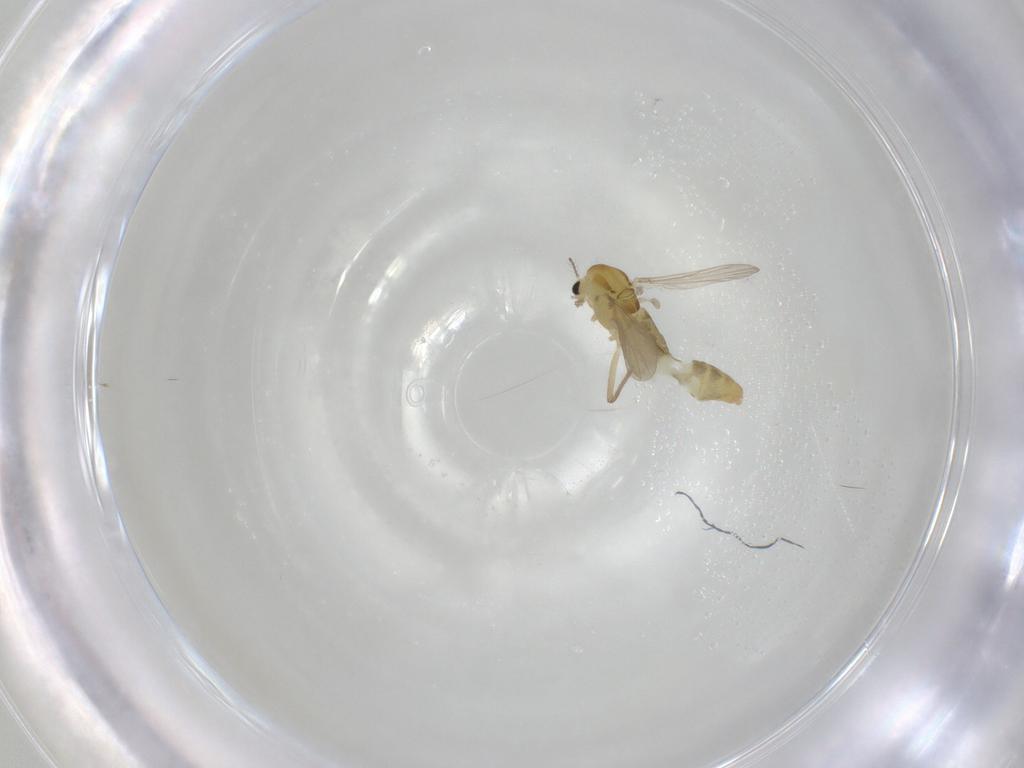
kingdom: Animalia
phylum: Arthropoda
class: Insecta
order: Diptera
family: Chironomidae
